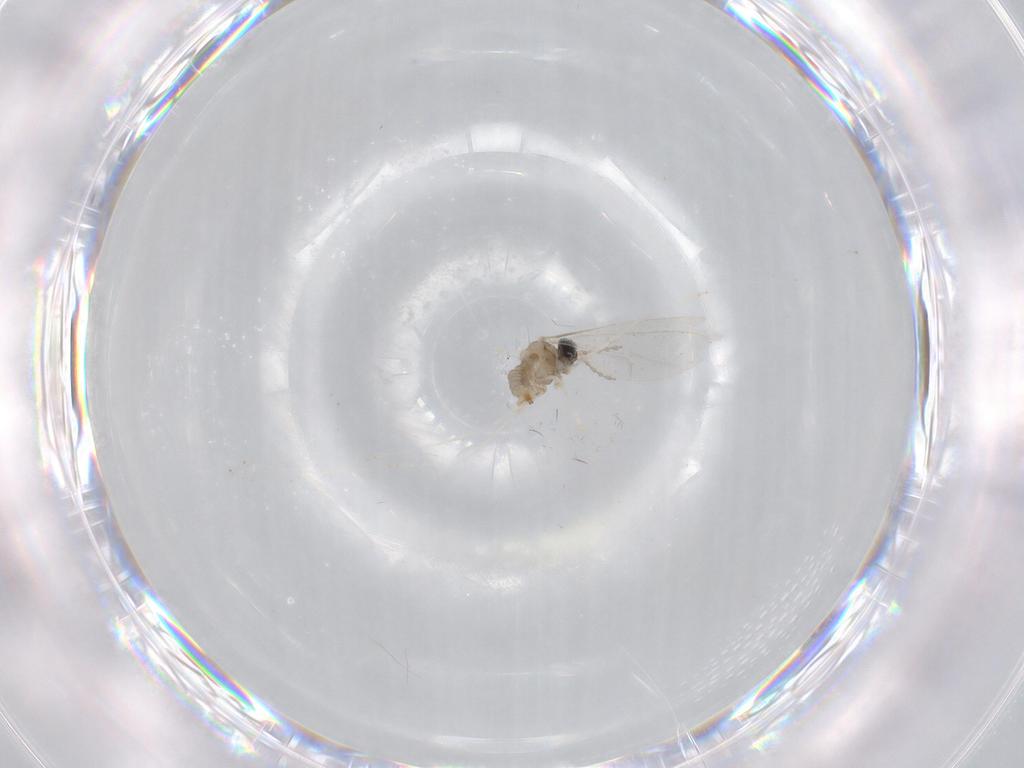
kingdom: Animalia
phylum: Arthropoda
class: Insecta
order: Diptera
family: Cecidomyiidae
